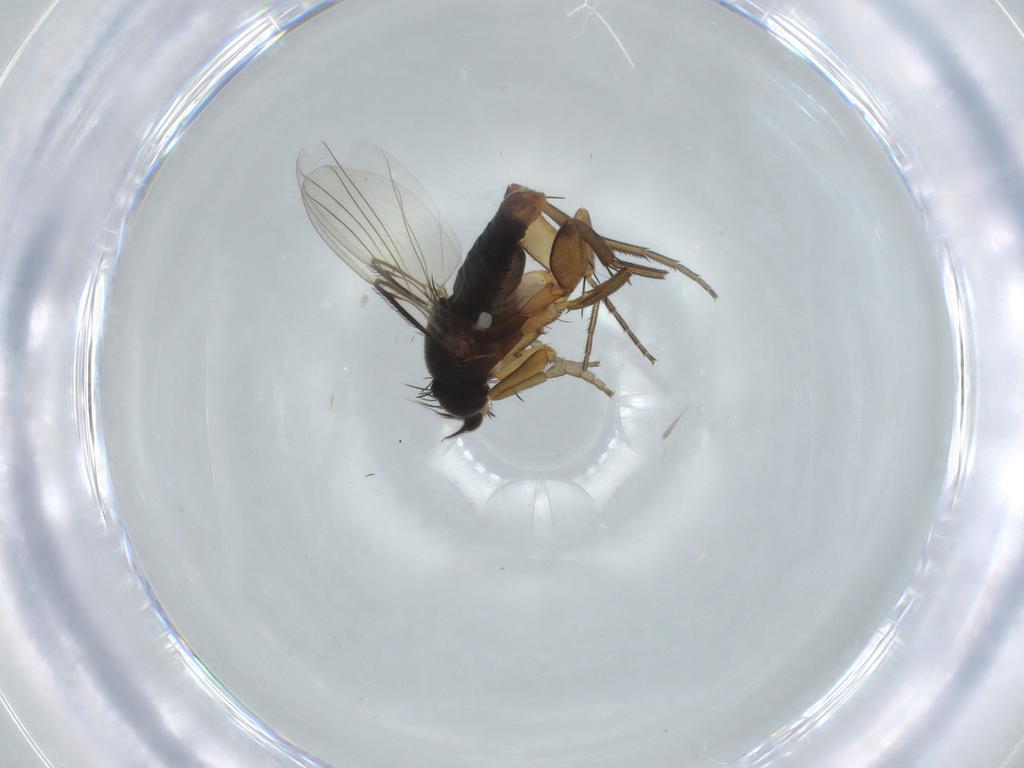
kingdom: Animalia
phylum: Arthropoda
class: Insecta
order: Diptera
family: Phoridae
